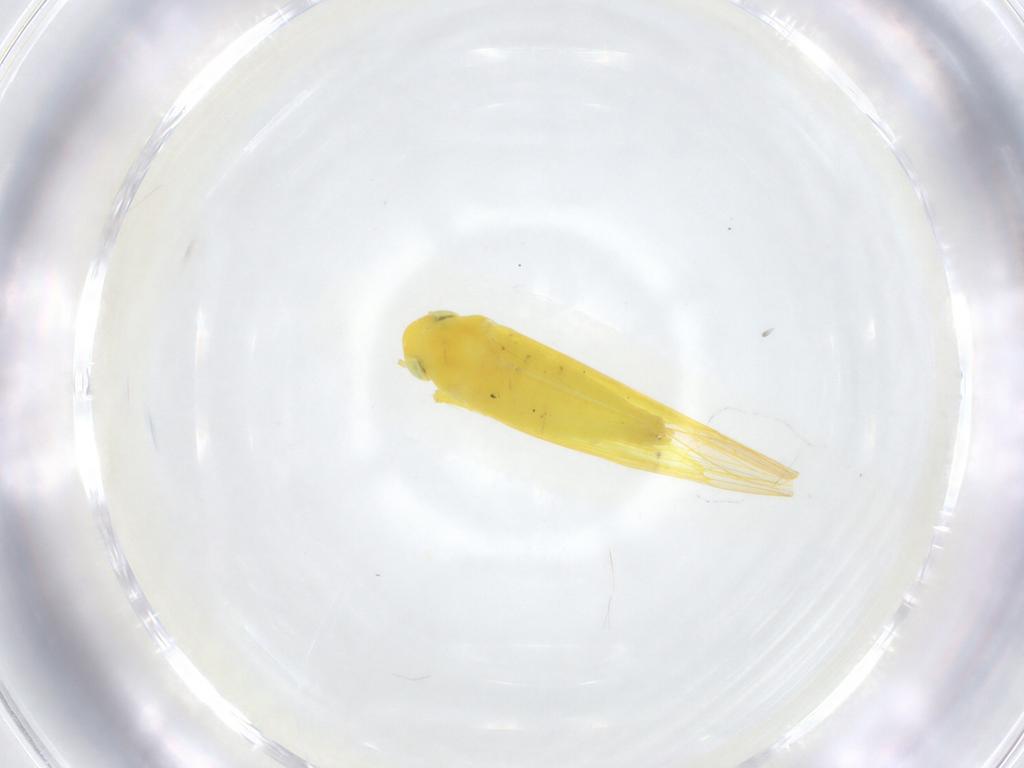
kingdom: Animalia
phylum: Arthropoda
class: Insecta
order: Hemiptera
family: Cicadellidae
